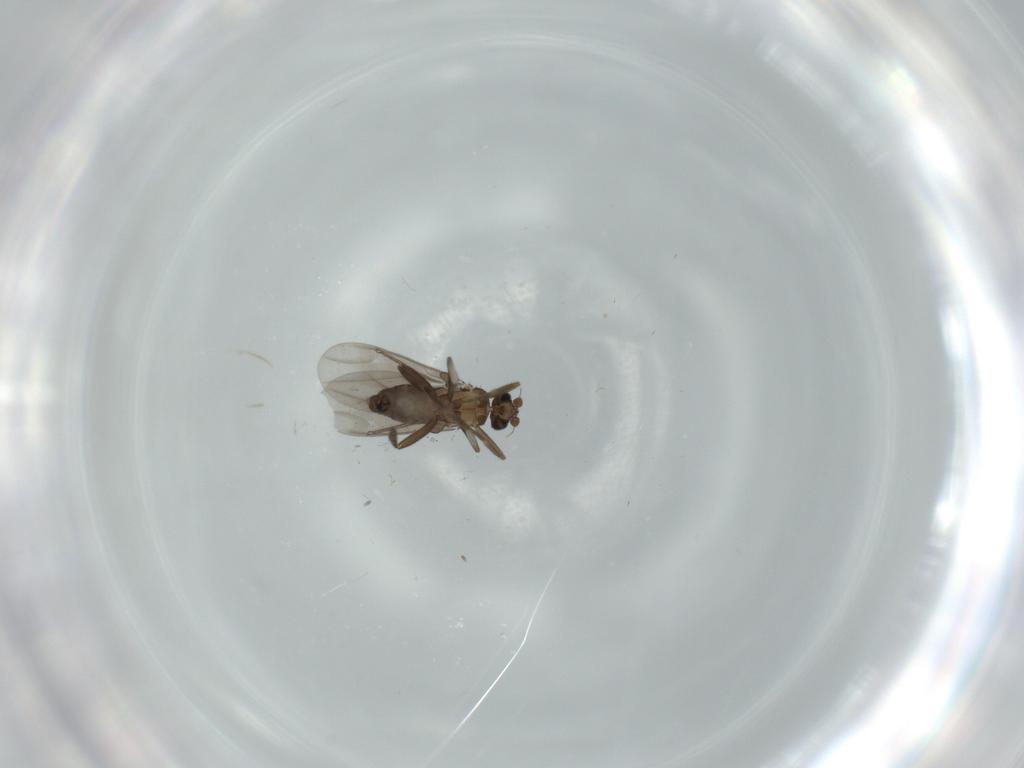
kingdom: Animalia
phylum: Arthropoda
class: Insecta
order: Diptera
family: Phoridae
